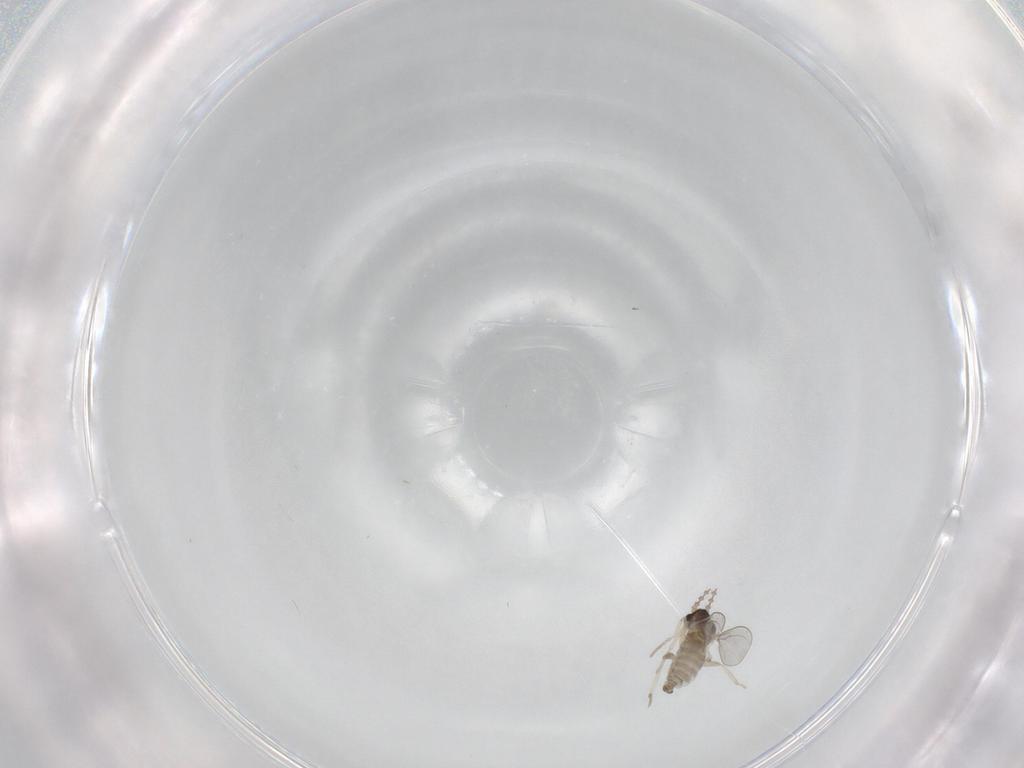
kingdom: Animalia
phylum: Arthropoda
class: Insecta
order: Diptera
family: Cecidomyiidae
